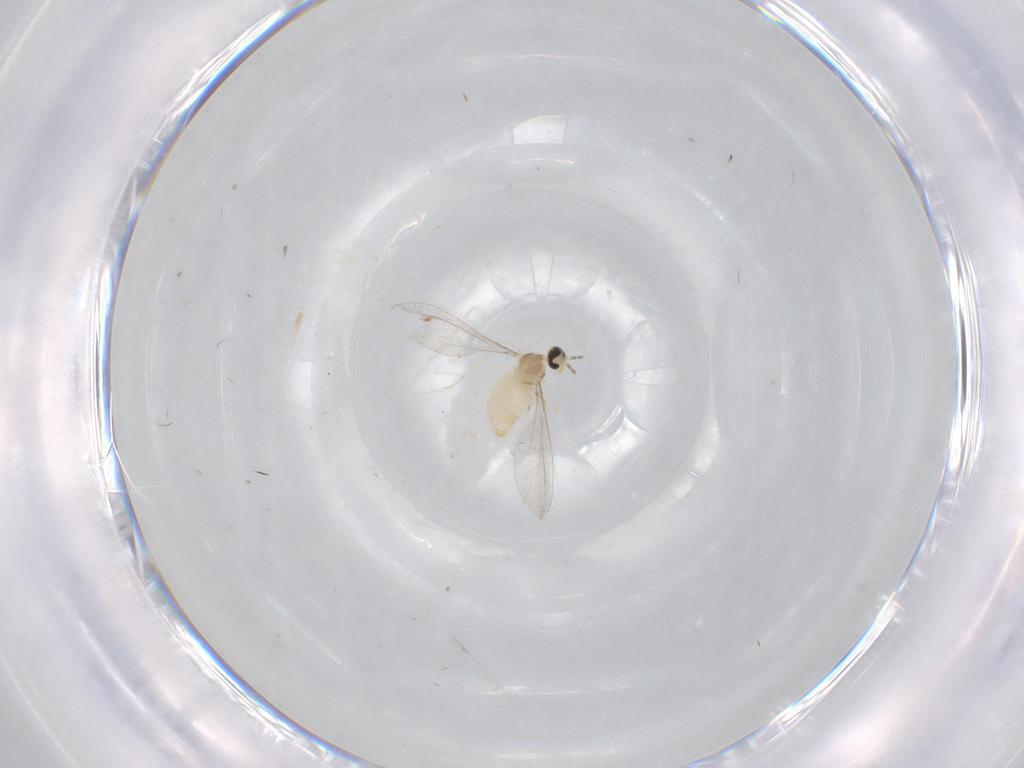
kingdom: Animalia
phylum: Arthropoda
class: Insecta
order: Diptera
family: Cecidomyiidae
